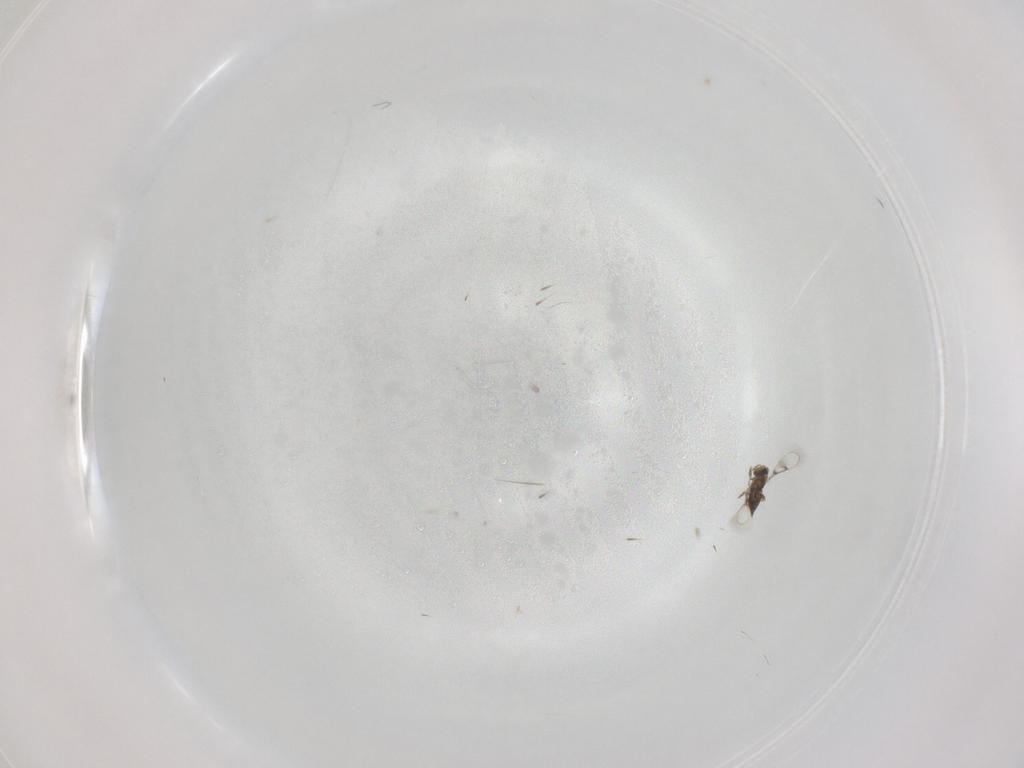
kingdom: Animalia
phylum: Arthropoda
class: Insecta
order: Hymenoptera
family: Trichogrammatidae
